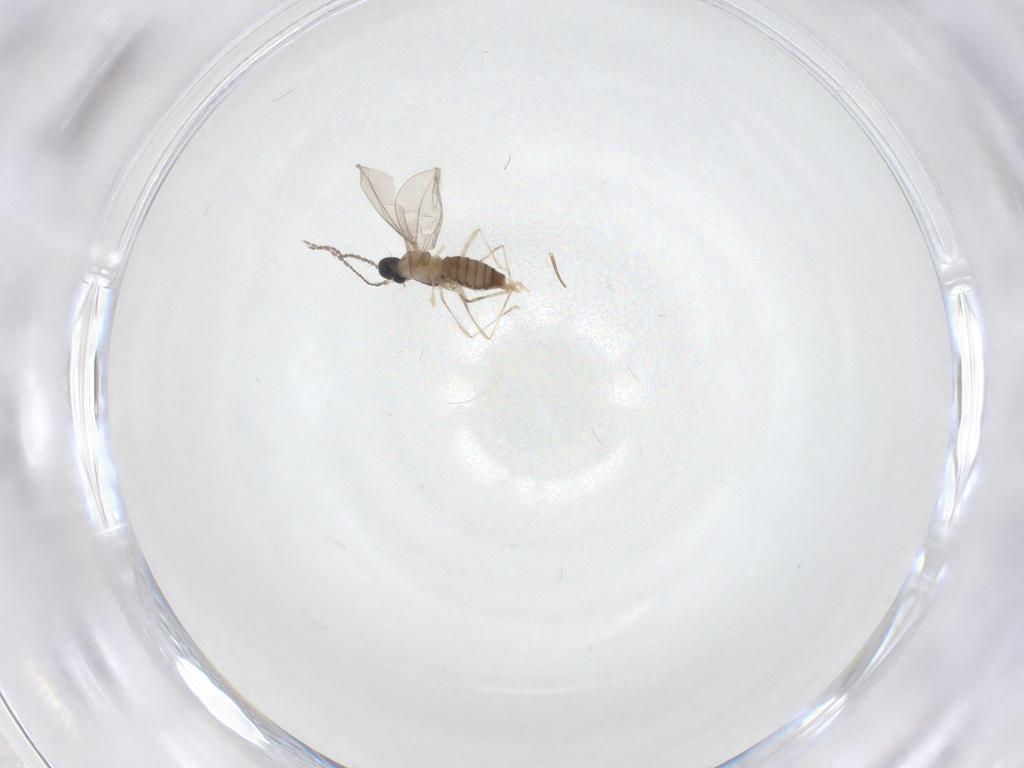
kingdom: Animalia
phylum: Arthropoda
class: Insecta
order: Diptera
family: Cecidomyiidae
